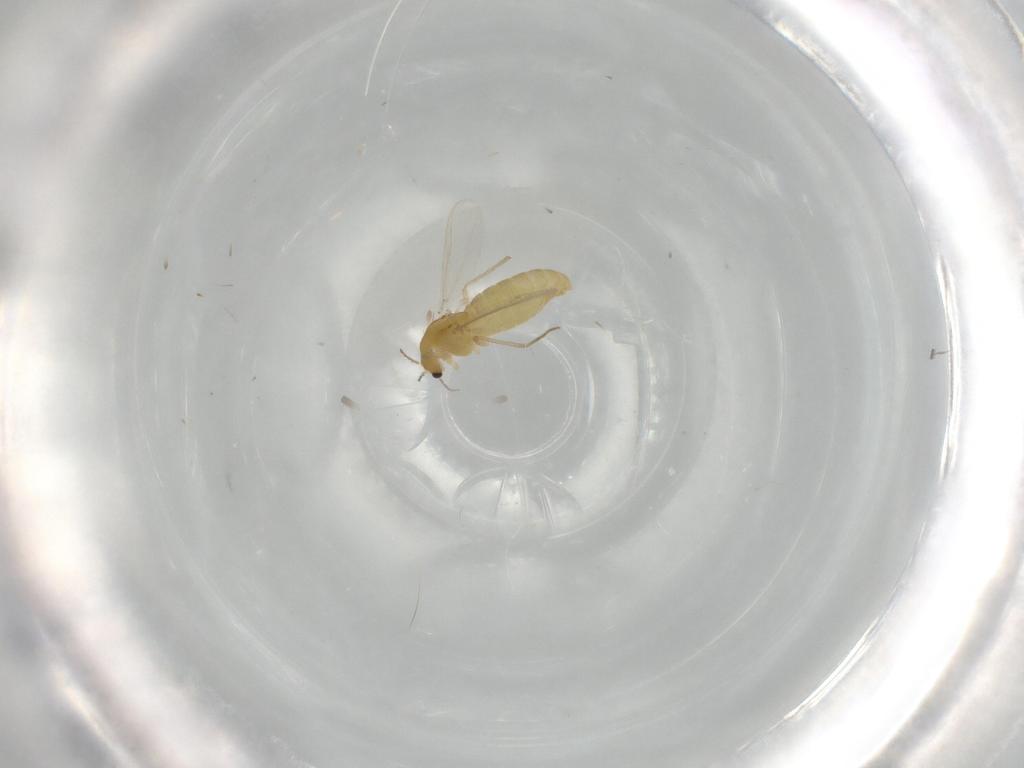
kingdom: Animalia
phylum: Arthropoda
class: Insecta
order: Diptera
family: Chironomidae
